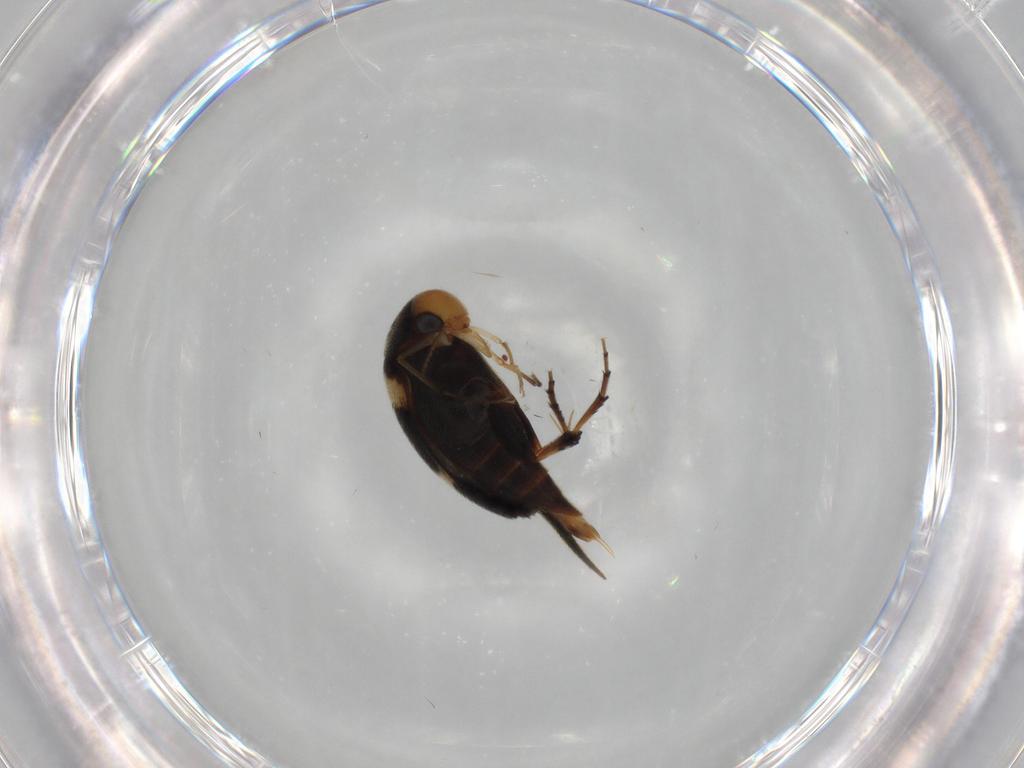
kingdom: Animalia
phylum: Arthropoda
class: Insecta
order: Coleoptera
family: Mordellidae
